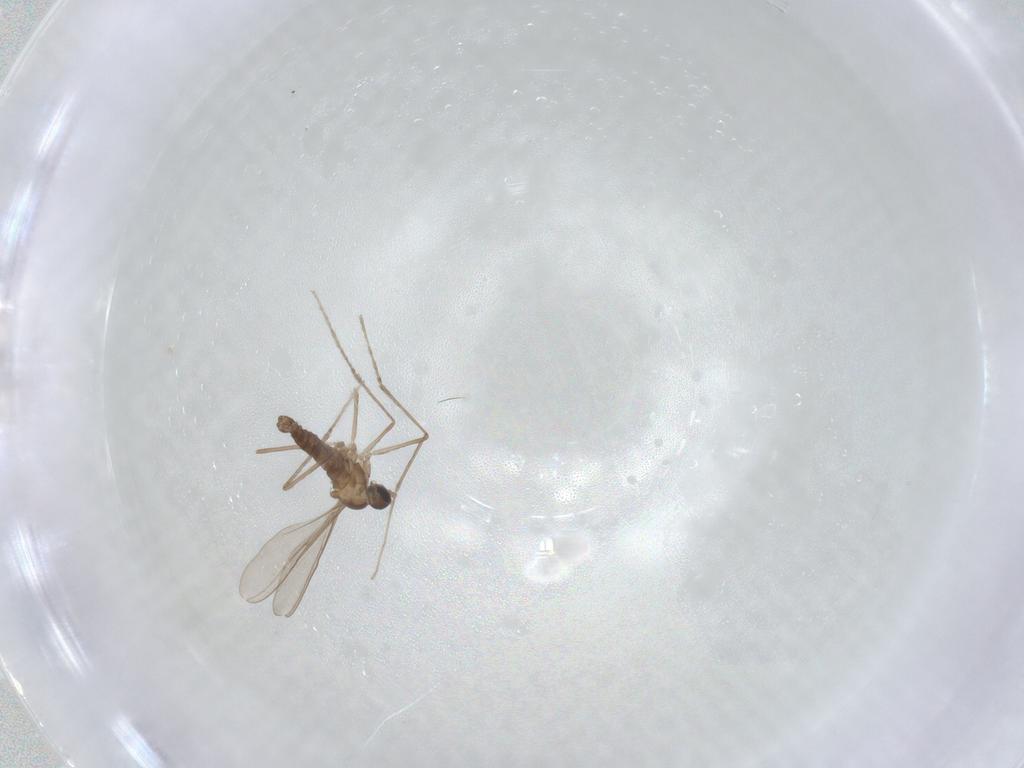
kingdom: Animalia
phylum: Arthropoda
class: Insecta
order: Diptera
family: Cecidomyiidae
